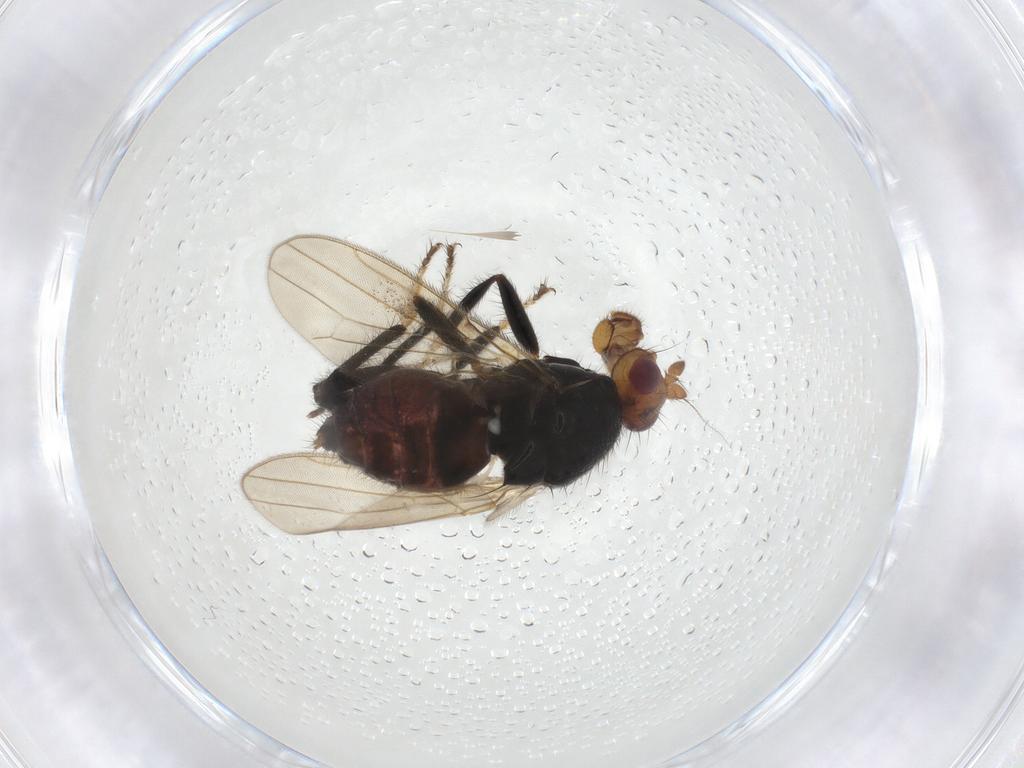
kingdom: Animalia
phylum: Arthropoda
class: Insecta
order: Diptera
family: Sphaeroceridae
